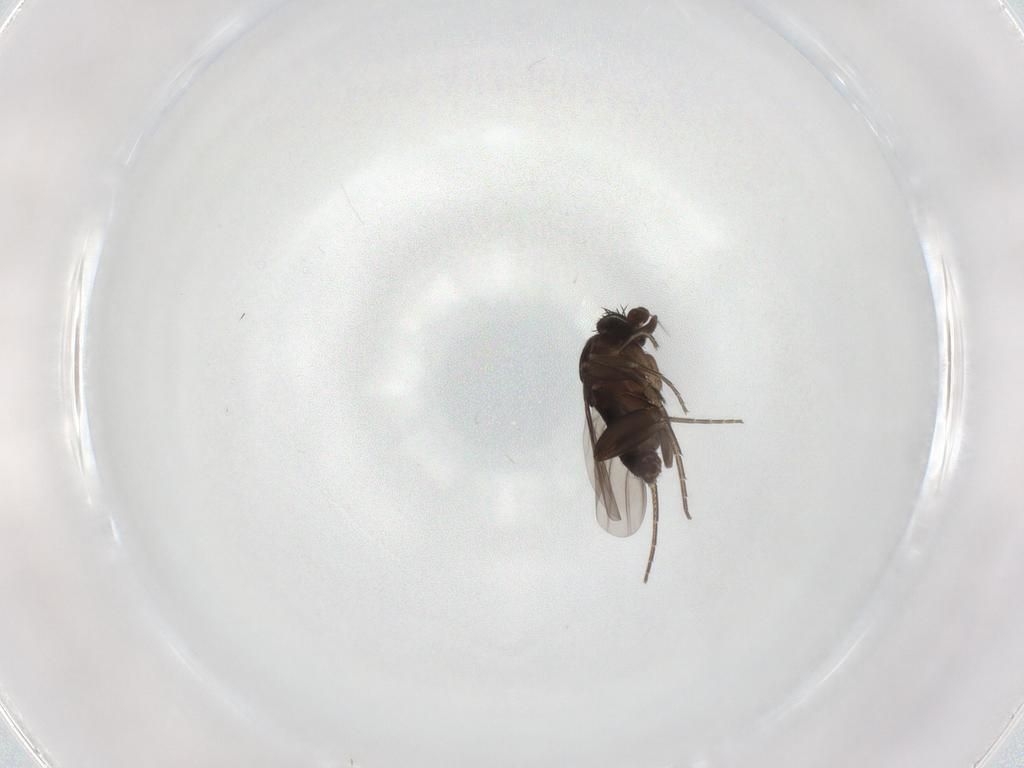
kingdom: Animalia
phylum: Arthropoda
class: Insecta
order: Diptera
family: Phoridae
